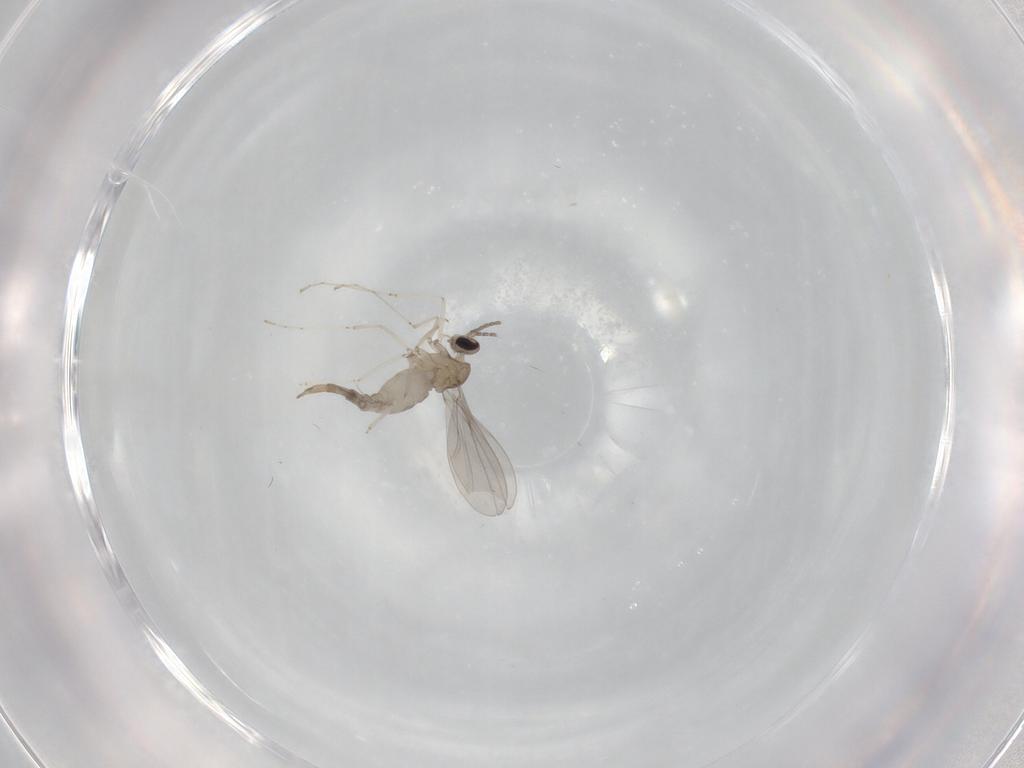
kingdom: Animalia
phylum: Arthropoda
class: Insecta
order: Diptera
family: Cecidomyiidae
